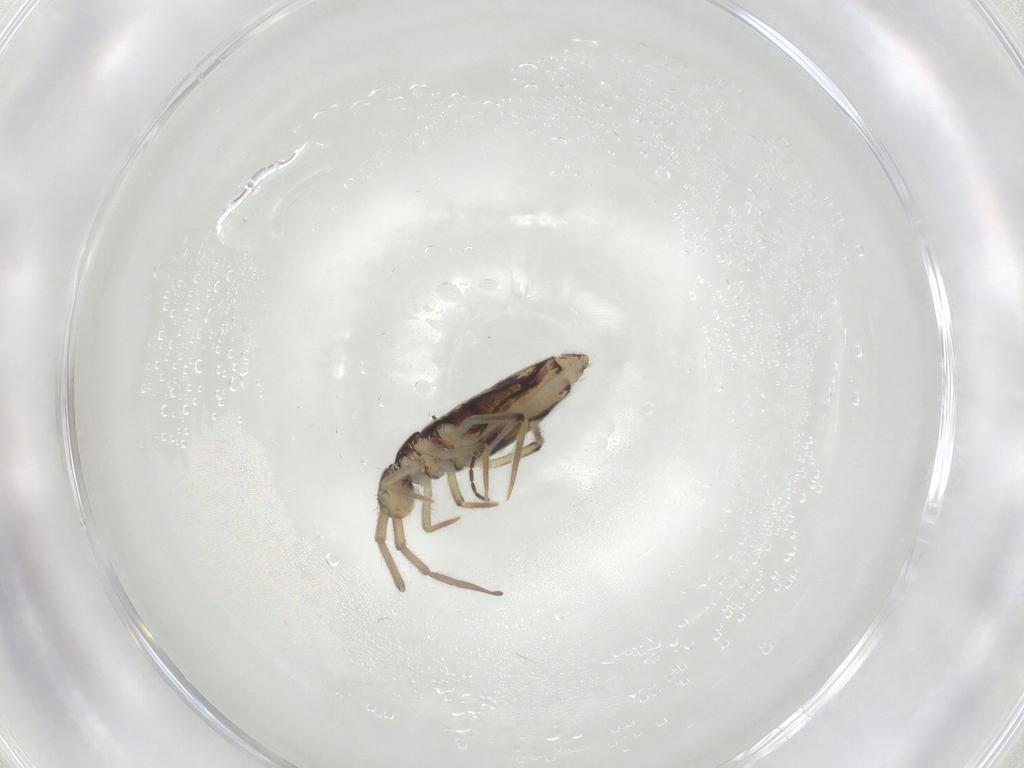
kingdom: Animalia
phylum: Arthropoda
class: Collembola
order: Entomobryomorpha
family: Entomobryidae
